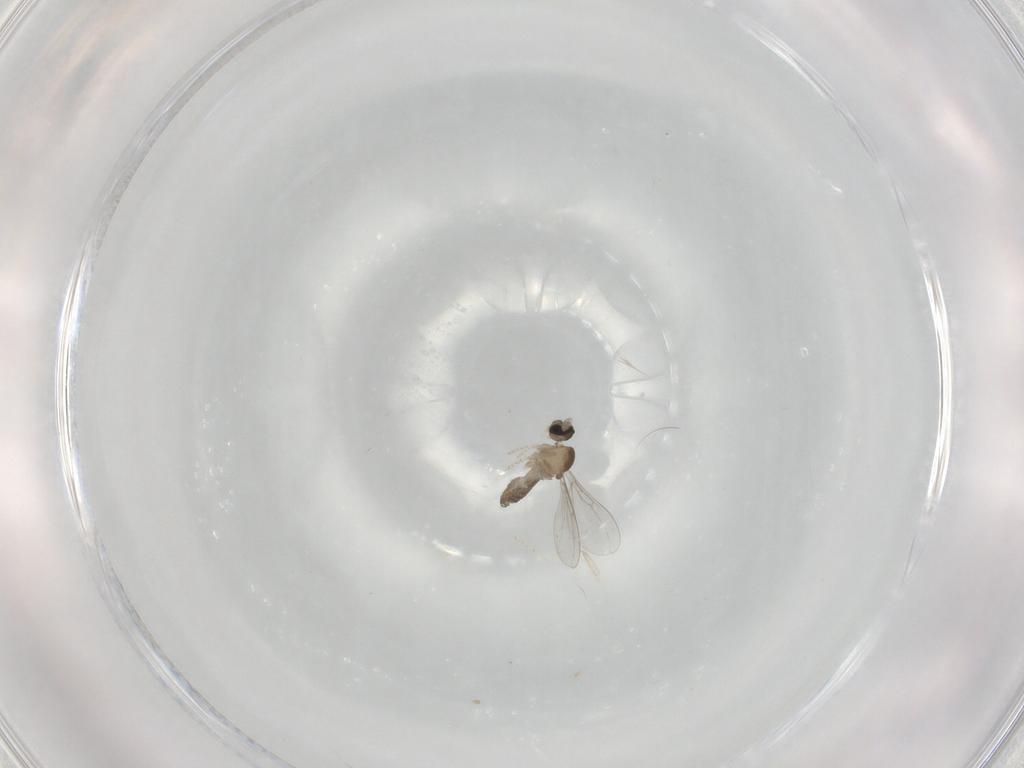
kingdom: Animalia
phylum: Arthropoda
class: Insecta
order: Diptera
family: Cecidomyiidae
